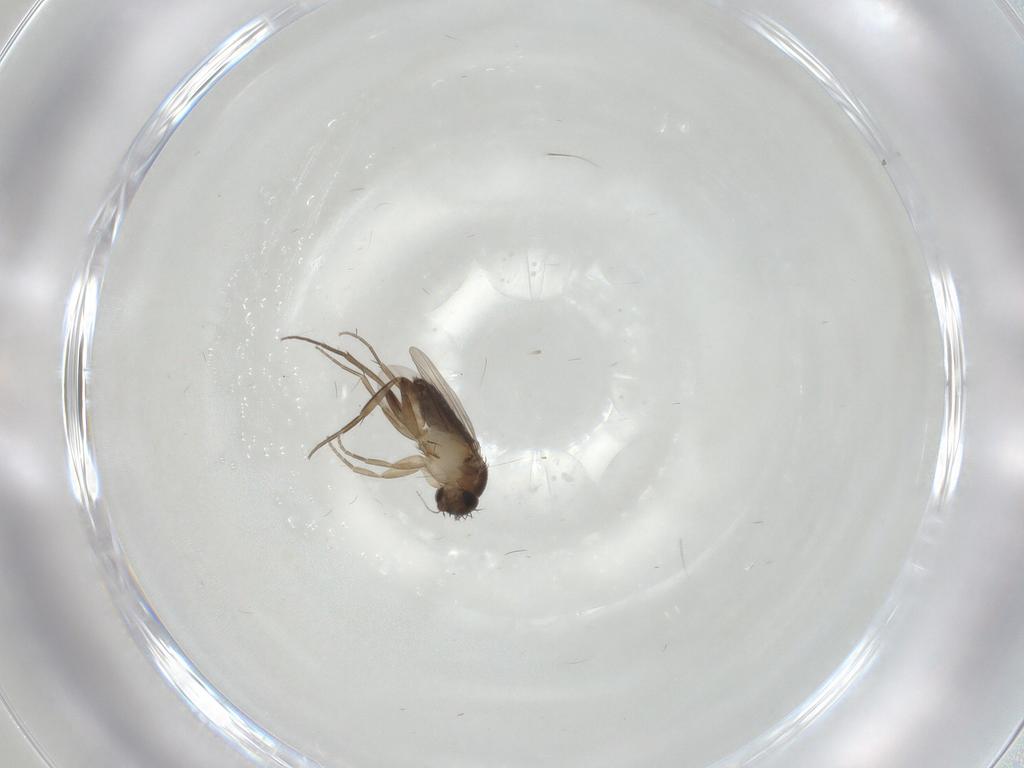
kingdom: Animalia
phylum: Arthropoda
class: Insecta
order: Diptera
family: Phoridae
